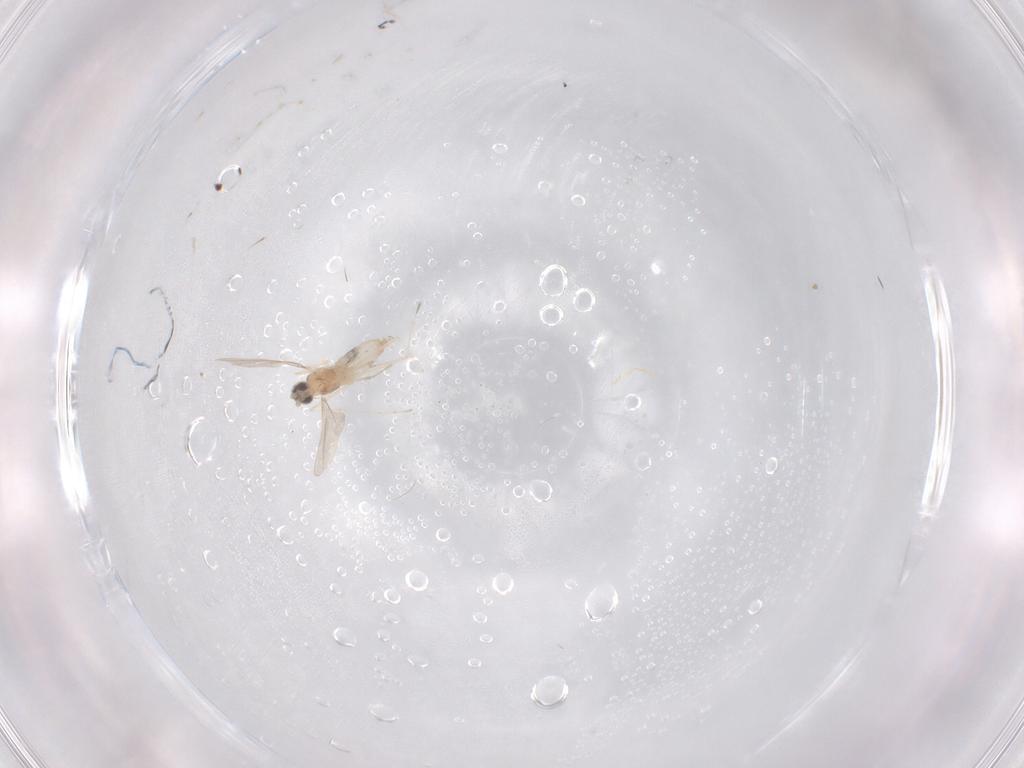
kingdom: Animalia
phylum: Arthropoda
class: Insecta
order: Diptera
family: Cecidomyiidae
